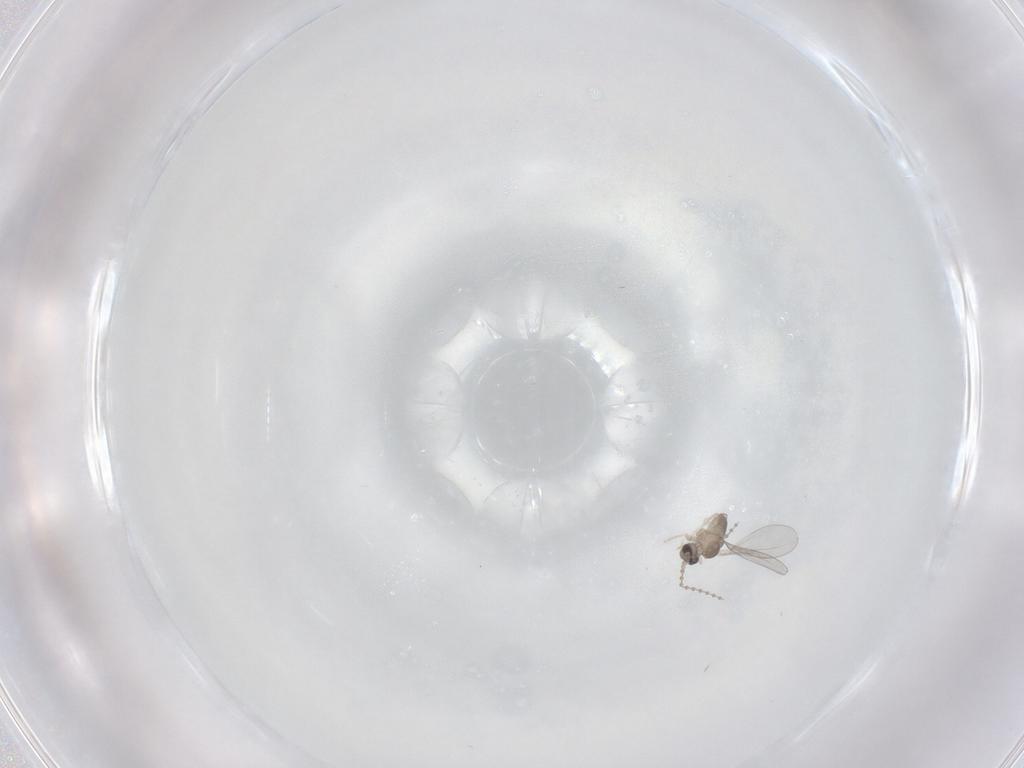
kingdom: Animalia
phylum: Arthropoda
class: Insecta
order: Diptera
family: Cecidomyiidae
